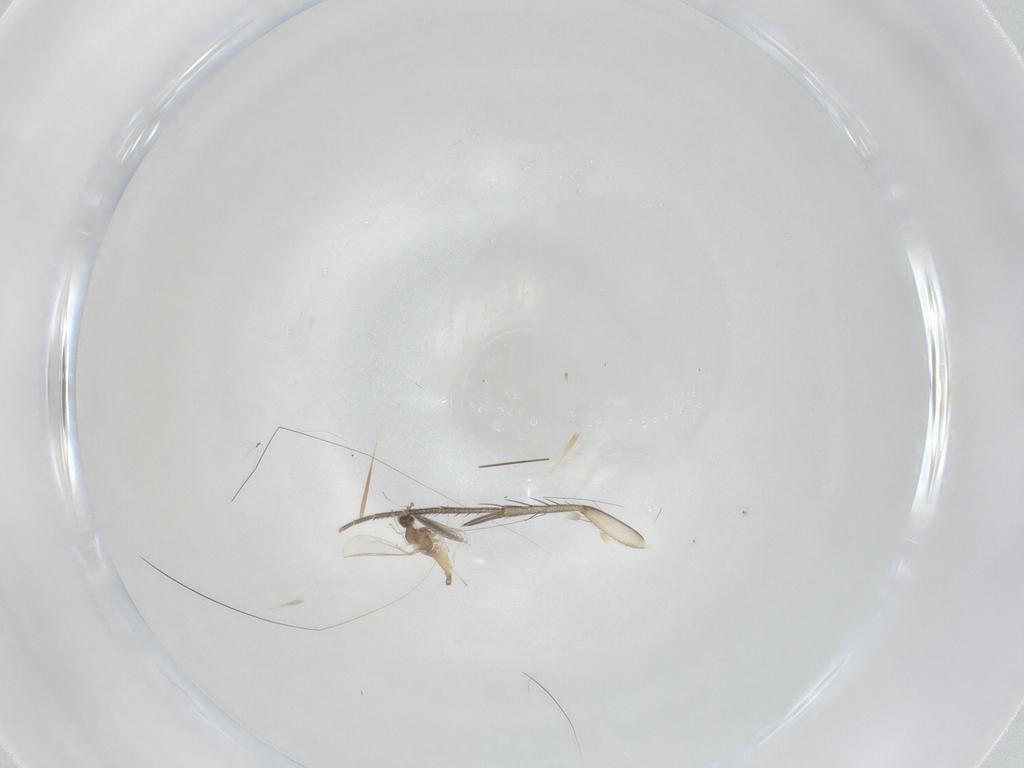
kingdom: Animalia
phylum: Arthropoda
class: Insecta
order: Diptera
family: Cecidomyiidae
